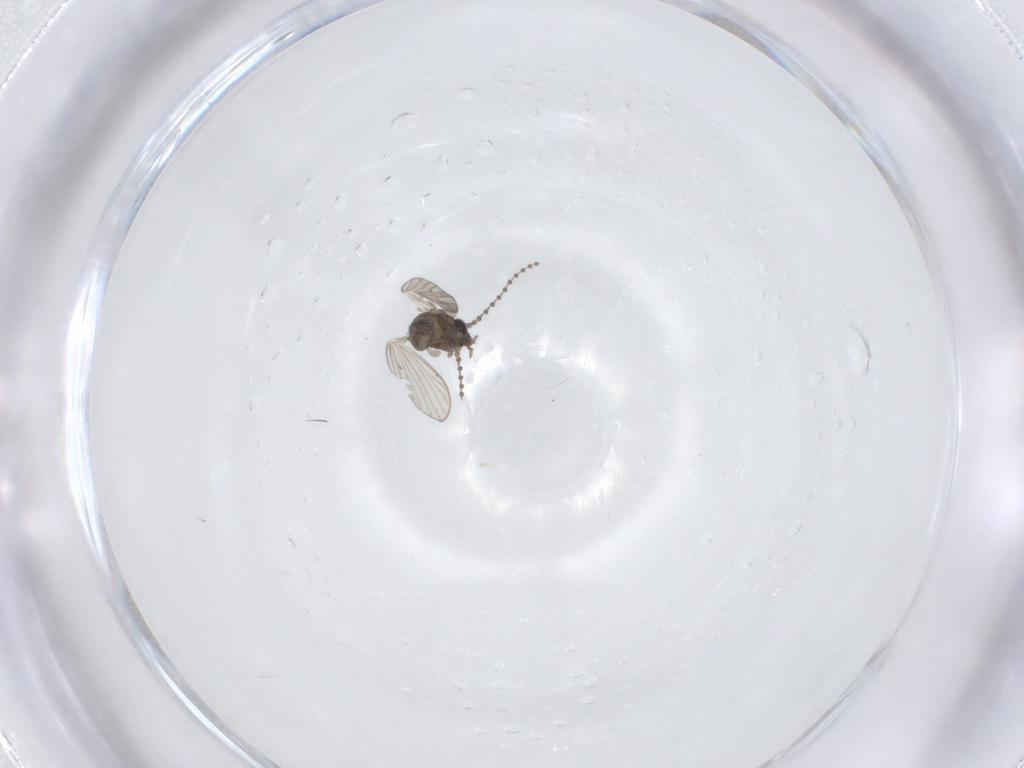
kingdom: Animalia
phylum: Arthropoda
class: Insecta
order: Diptera
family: Psychodidae
